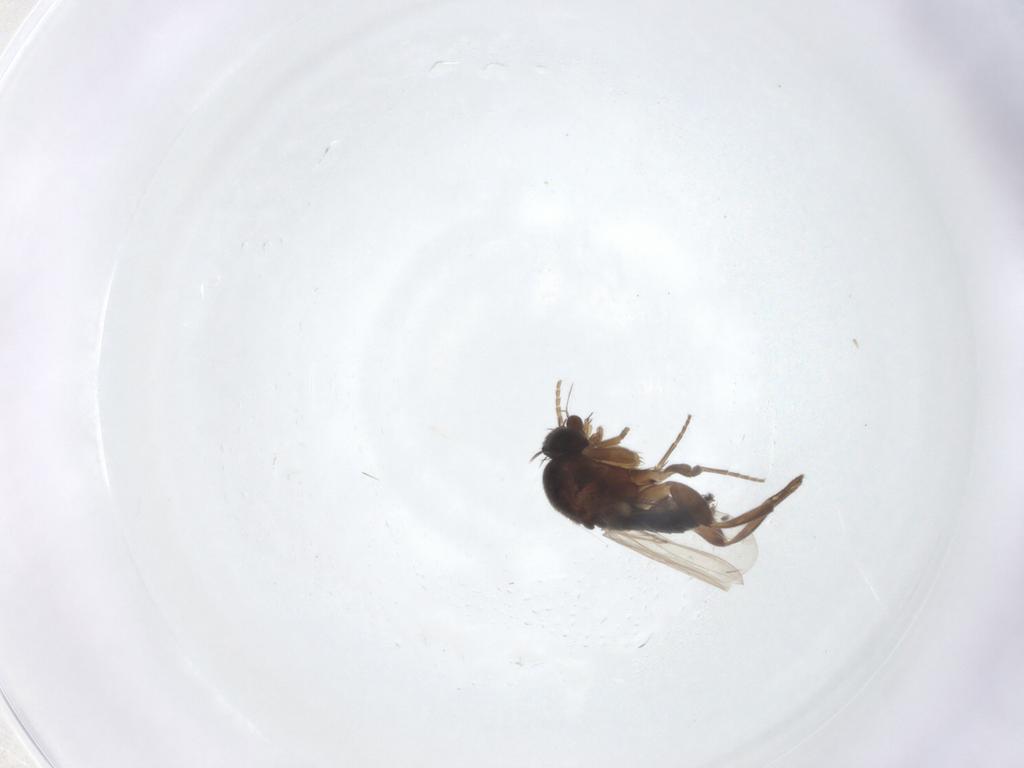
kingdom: Animalia
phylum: Arthropoda
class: Insecta
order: Diptera
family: Phoridae
